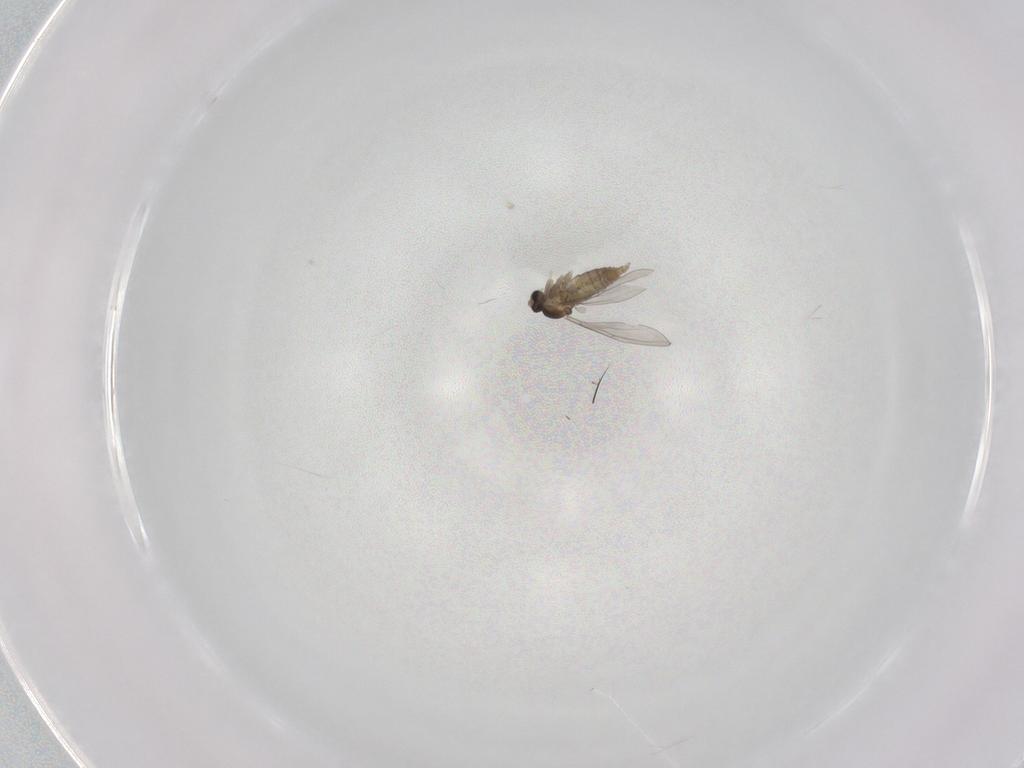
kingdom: Animalia
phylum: Arthropoda
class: Insecta
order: Diptera
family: Cecidomyiidae
